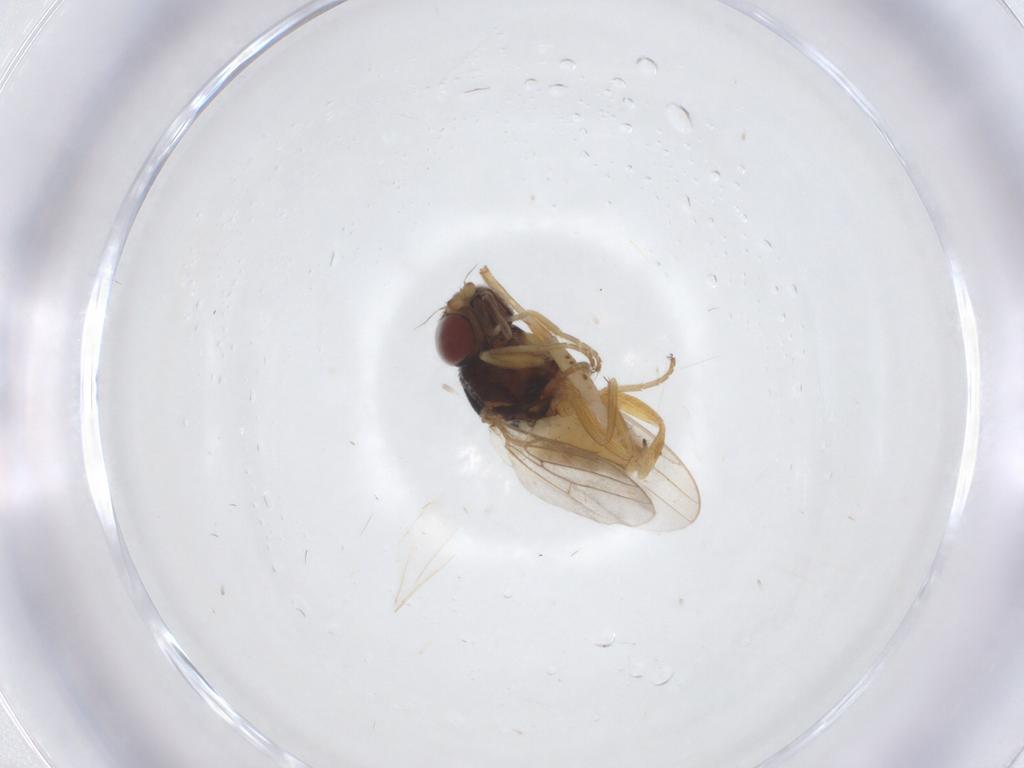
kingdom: Animalia
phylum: Arthropoda
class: Insecta
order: Diptera
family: Chloropidae
